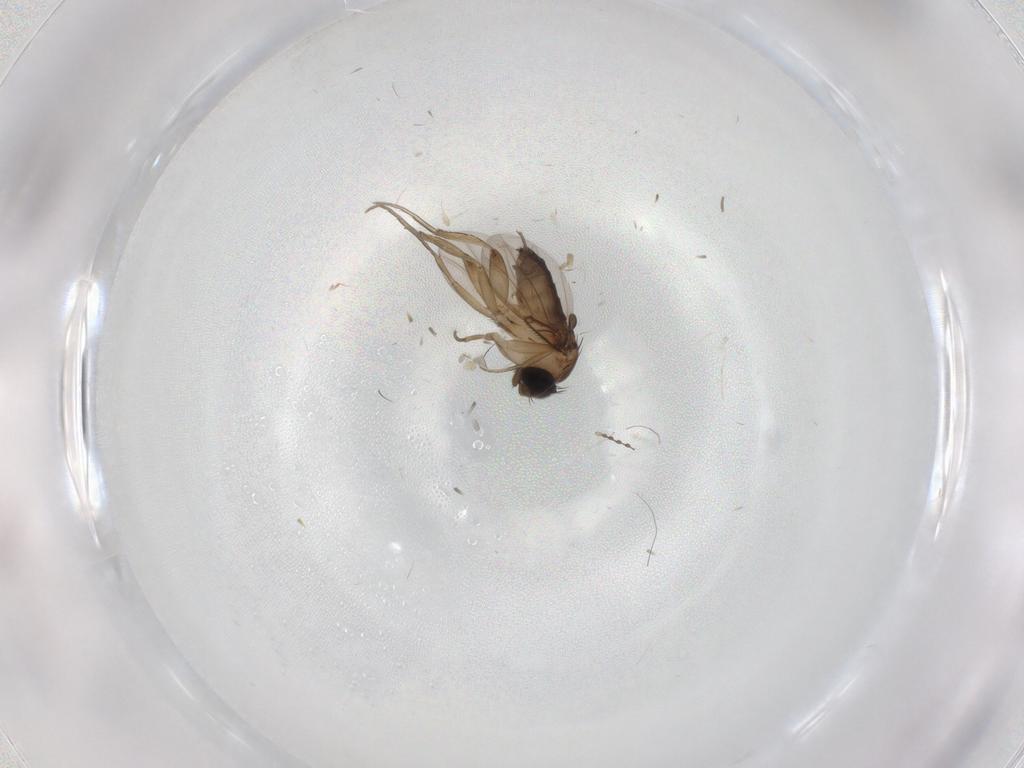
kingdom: Animalia
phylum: Arthropoda
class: Insecta
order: Diptera
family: Phoridae
